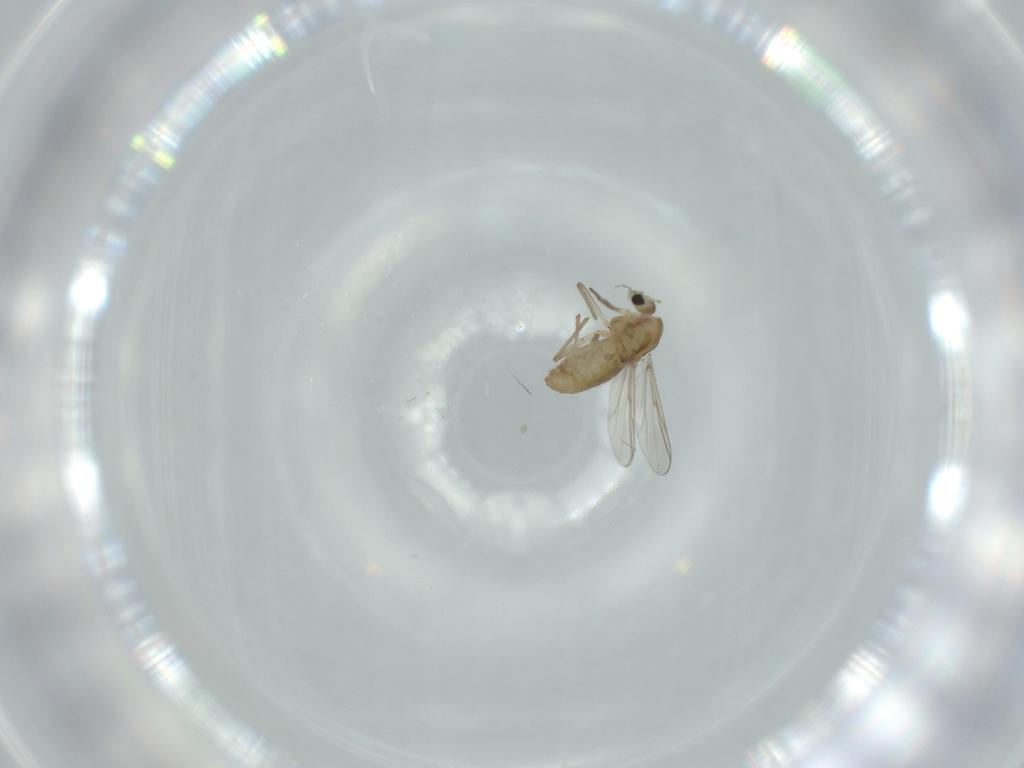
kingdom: Animalia
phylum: Arthropoda
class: Insecta
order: Diptera
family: Chironomidae
